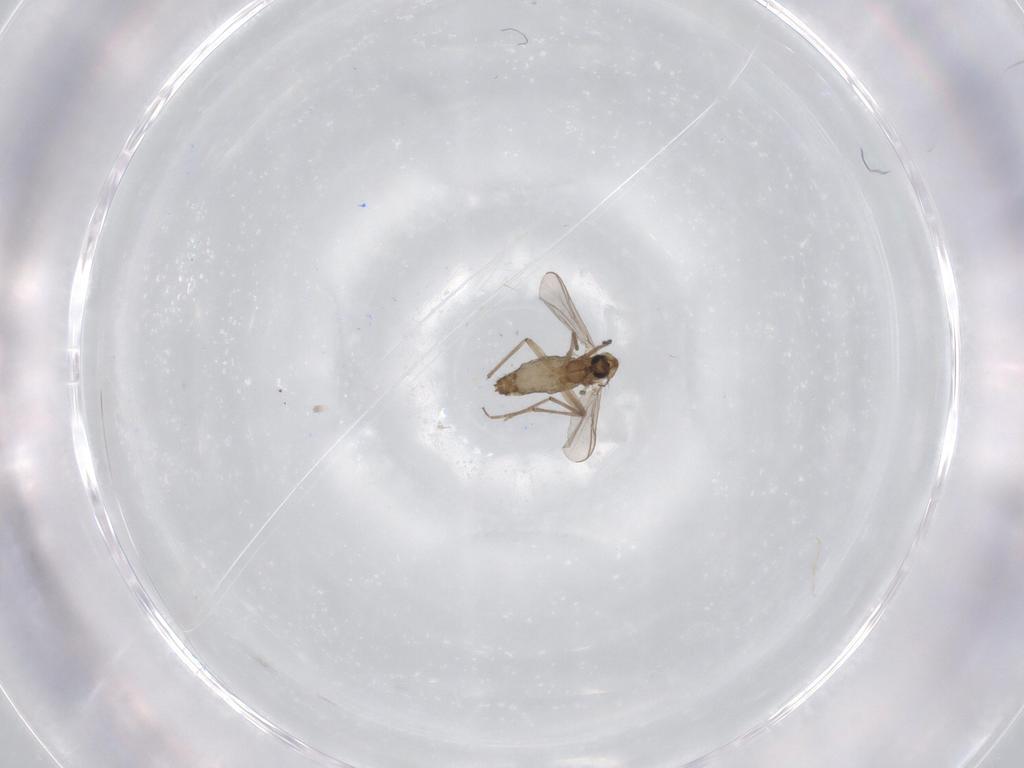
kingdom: Animalia
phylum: Arthropoda
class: Insecta
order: Diptera
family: Chironomidae
